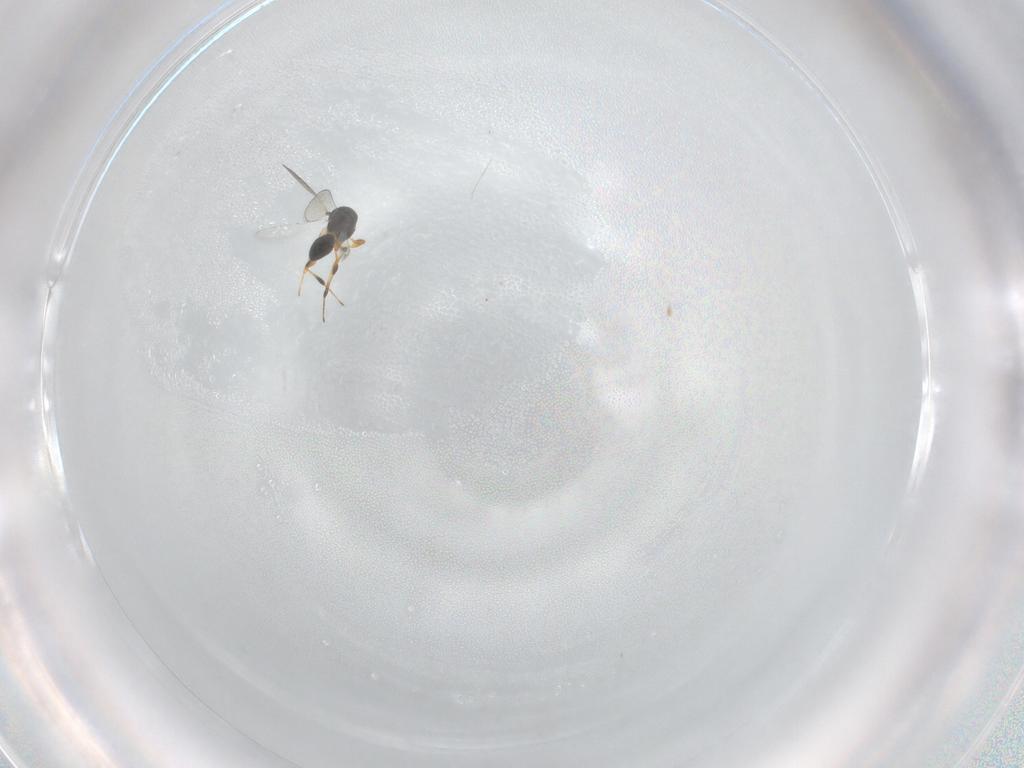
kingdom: Animalia
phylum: Arthropoda
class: Insecta
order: Hymenoptera
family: Platygastridae
